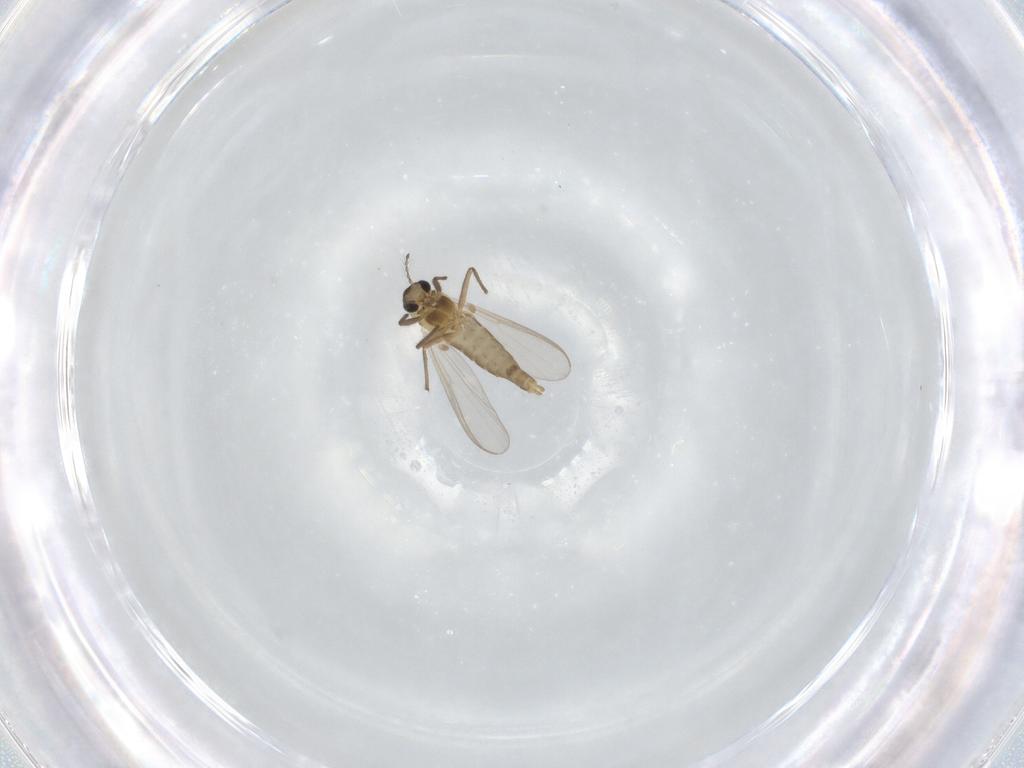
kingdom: Animalia
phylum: Arthropoda
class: Insecta
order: Diptera
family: Chironomidae
